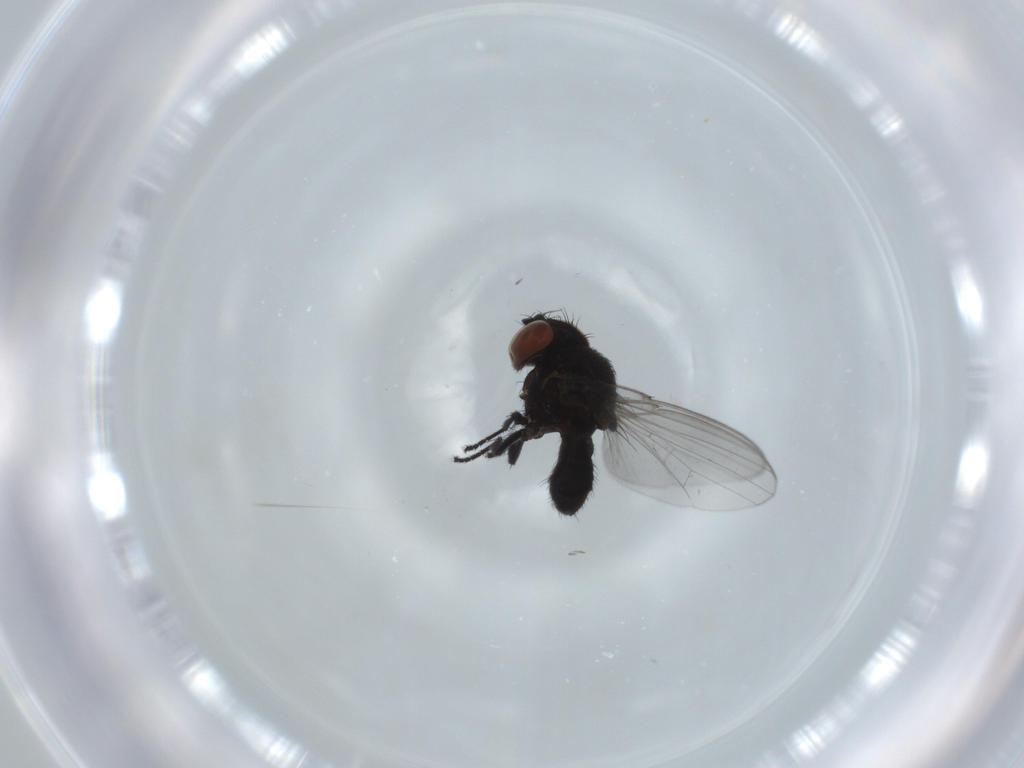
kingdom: Animalia
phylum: Arthropoda
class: Insecta
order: Diptera
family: Milichiidae
